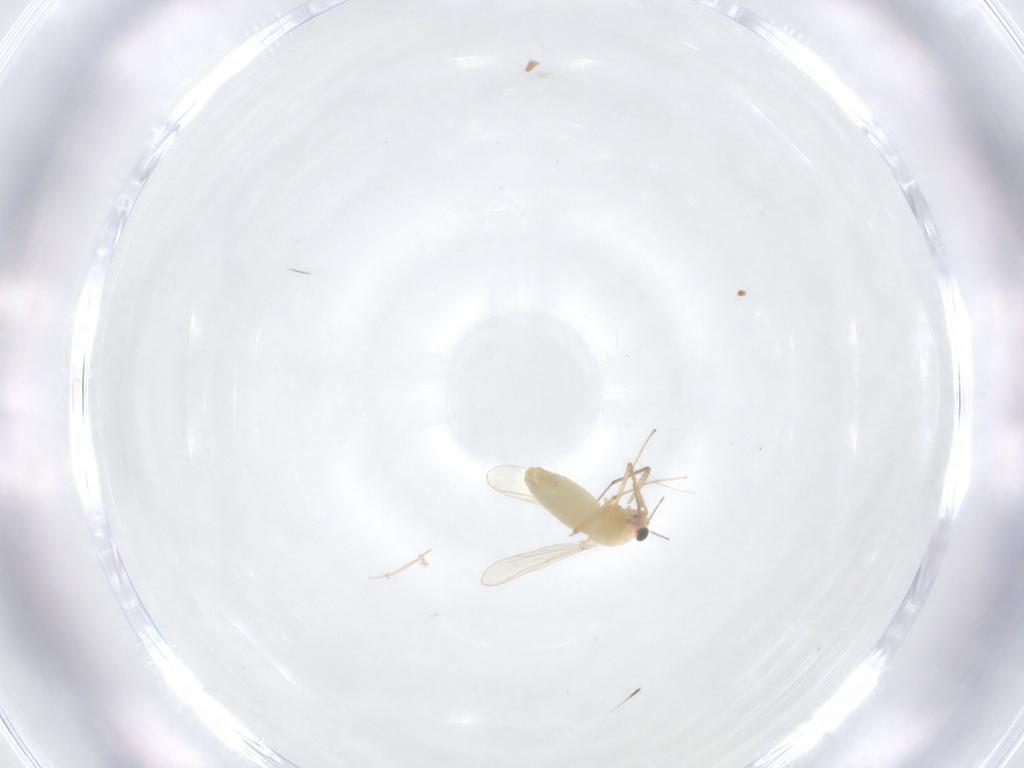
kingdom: Animalia
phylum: Arthropoda
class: Insecta
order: Diptera
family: Chironomidae
